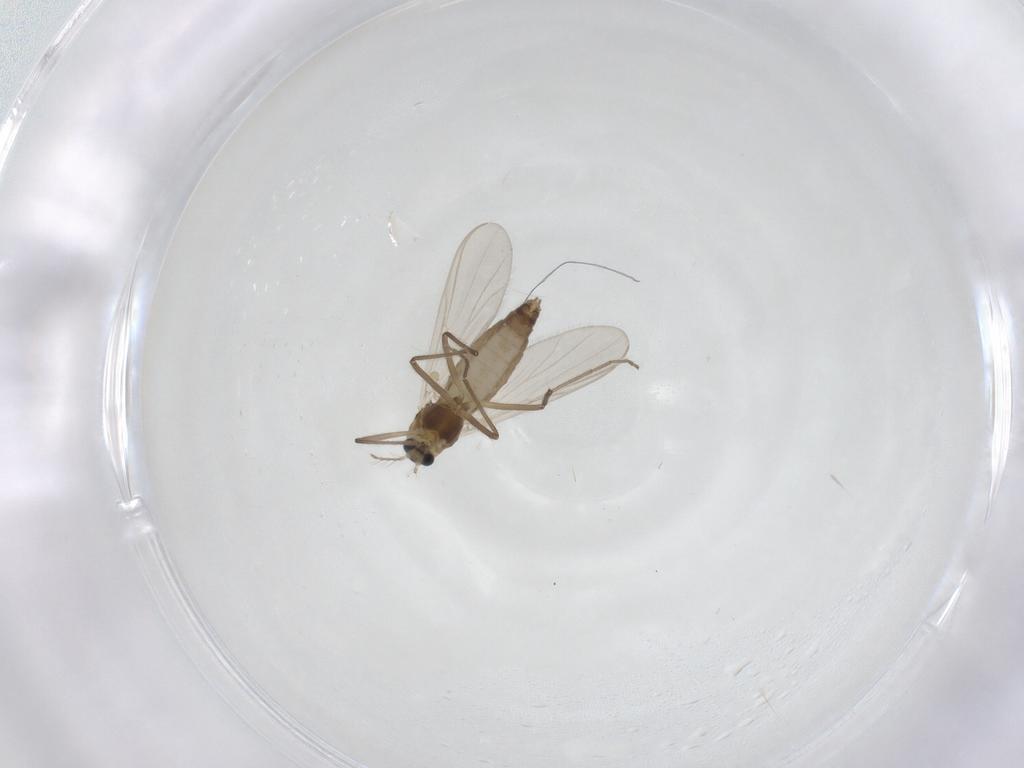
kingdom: Animalia
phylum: Arthropoda
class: Insecta
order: Diptera
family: Chironomidae
